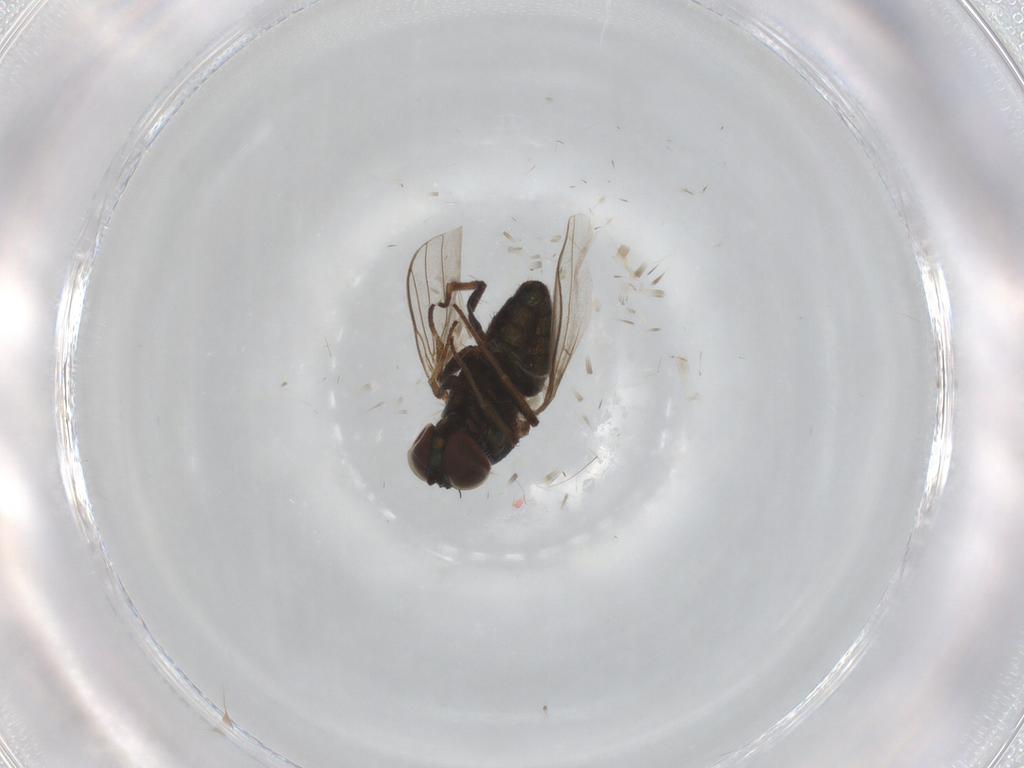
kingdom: Animalia
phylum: Arthropoda
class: Insecta
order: Diptera
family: Dolichopodidae
